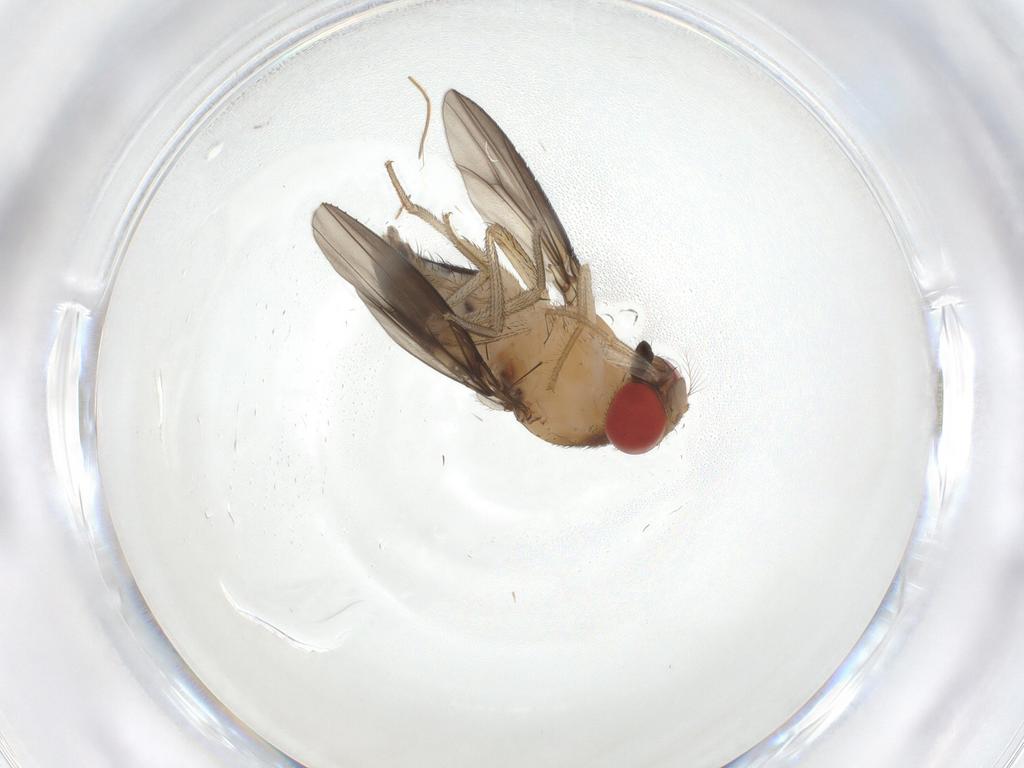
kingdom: Animalia
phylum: Arthropoda
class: Insecta
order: Diptera
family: Drosophilidae
